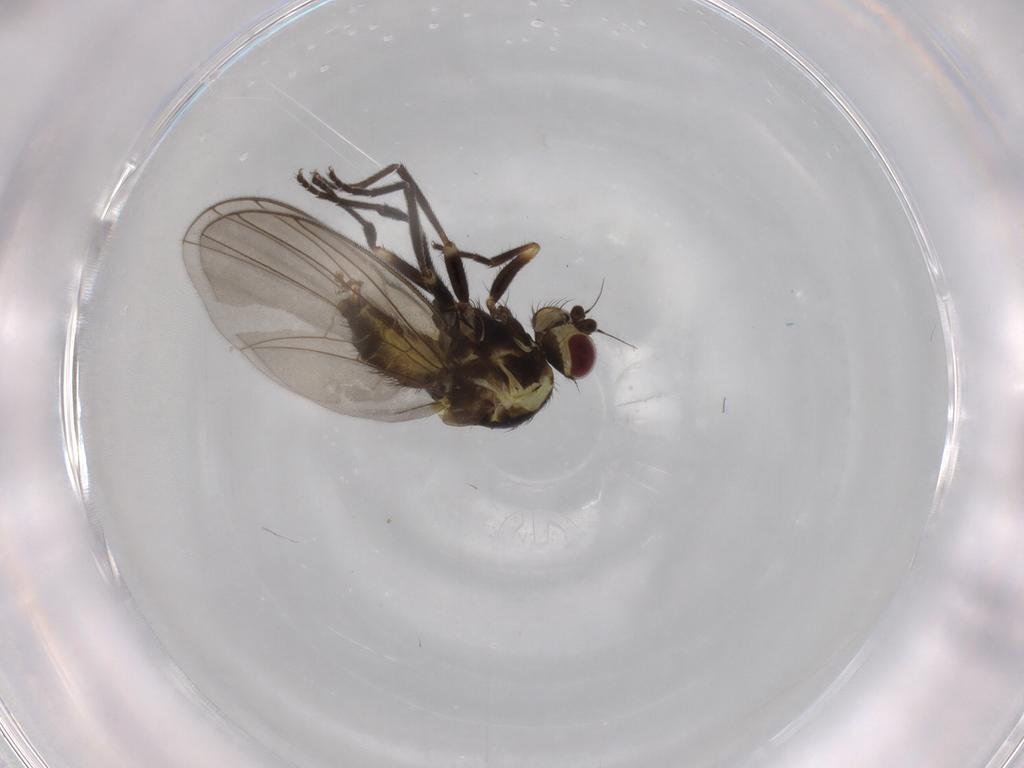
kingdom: Animalia
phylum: Arthropoda
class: Insecta
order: Diptera
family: Agromyzidae
